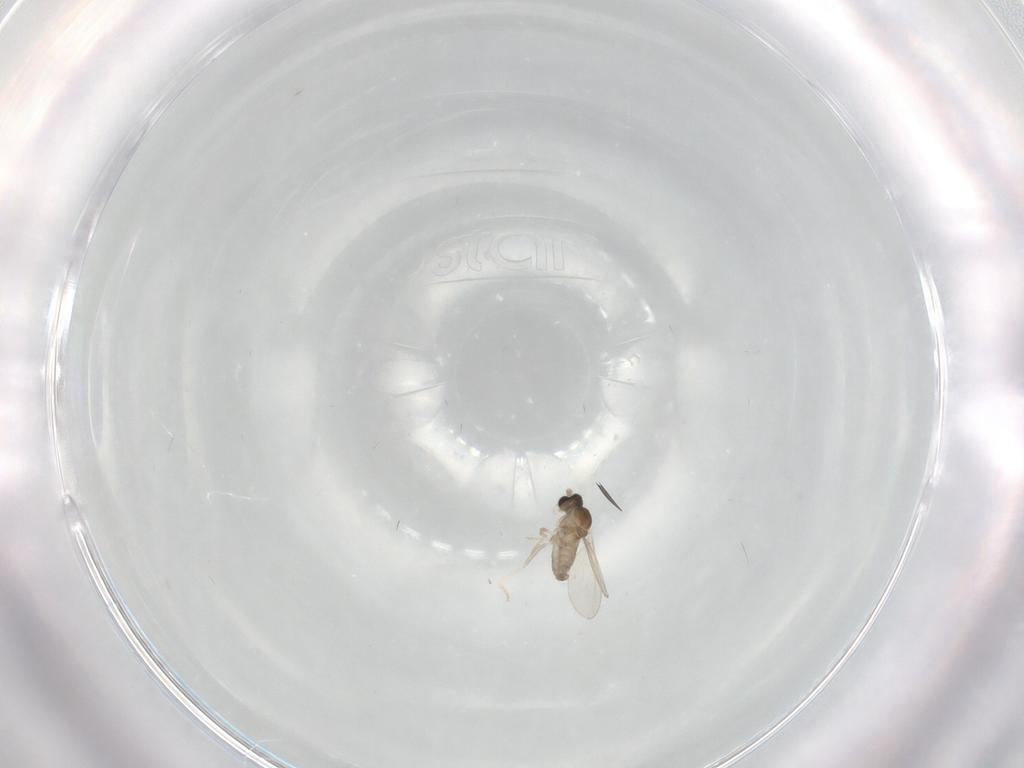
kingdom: Animalia
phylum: Arthropoda
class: Insecta
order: Diptera
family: Cecidomyiidae
